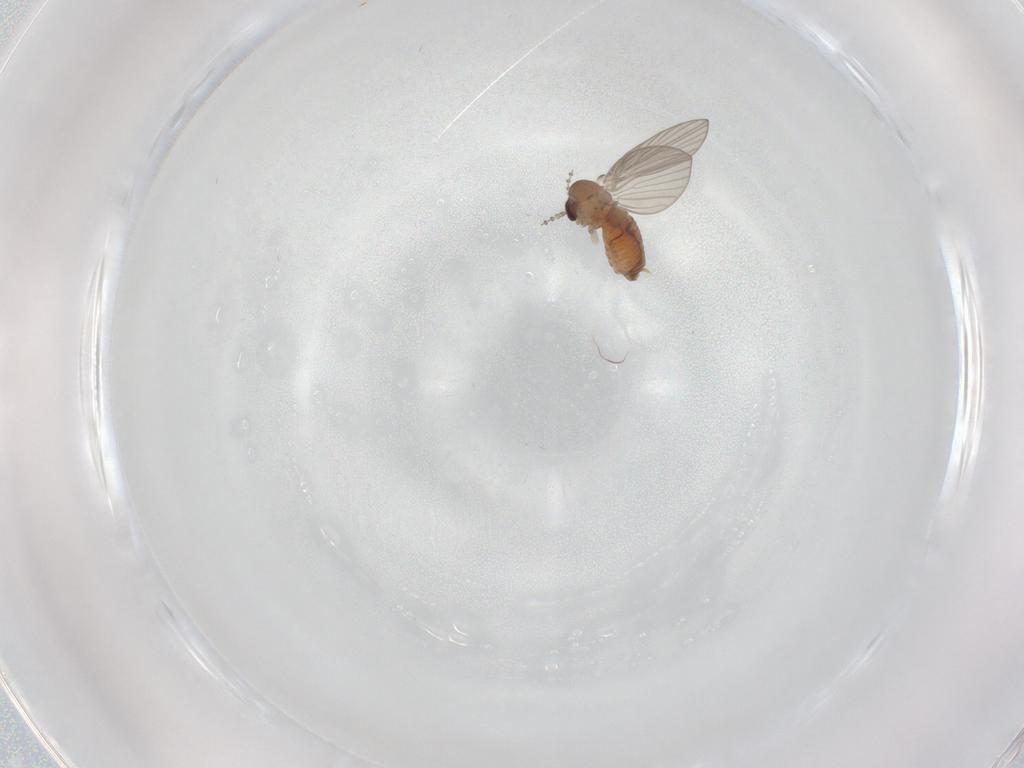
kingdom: Animalia
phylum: Arthropoda
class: Insecta
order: Diptera
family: Psychodidae
